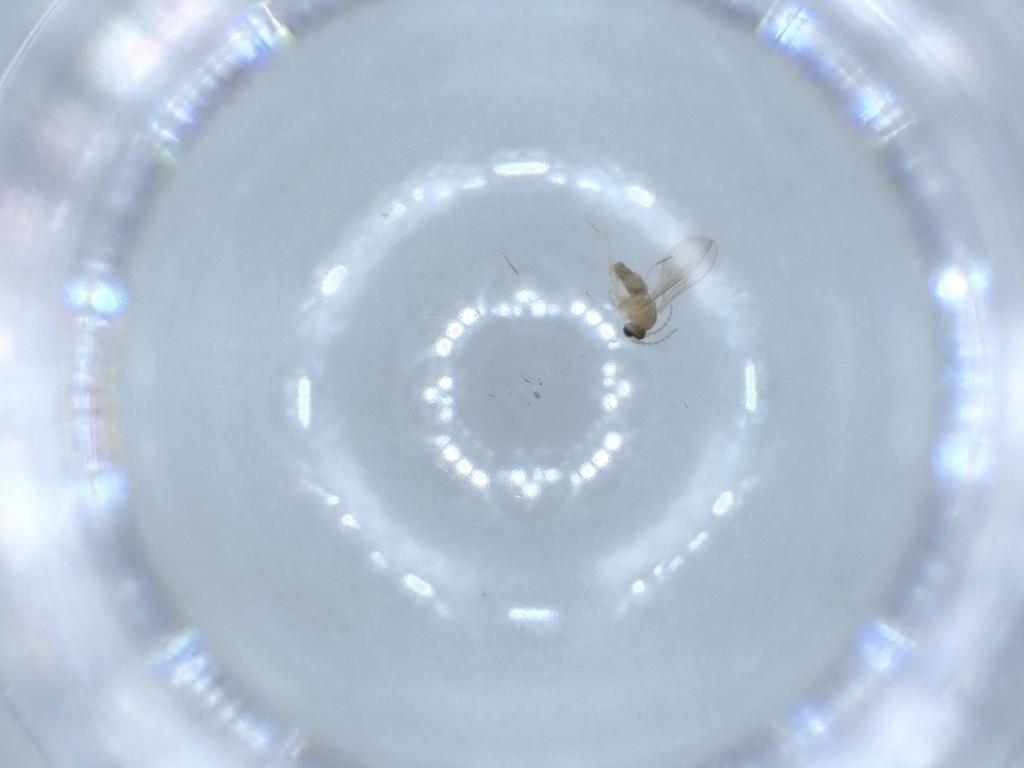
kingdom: Animalia
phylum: Arthropoda
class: Insecta
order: Diptera
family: Cecidomyiidae
